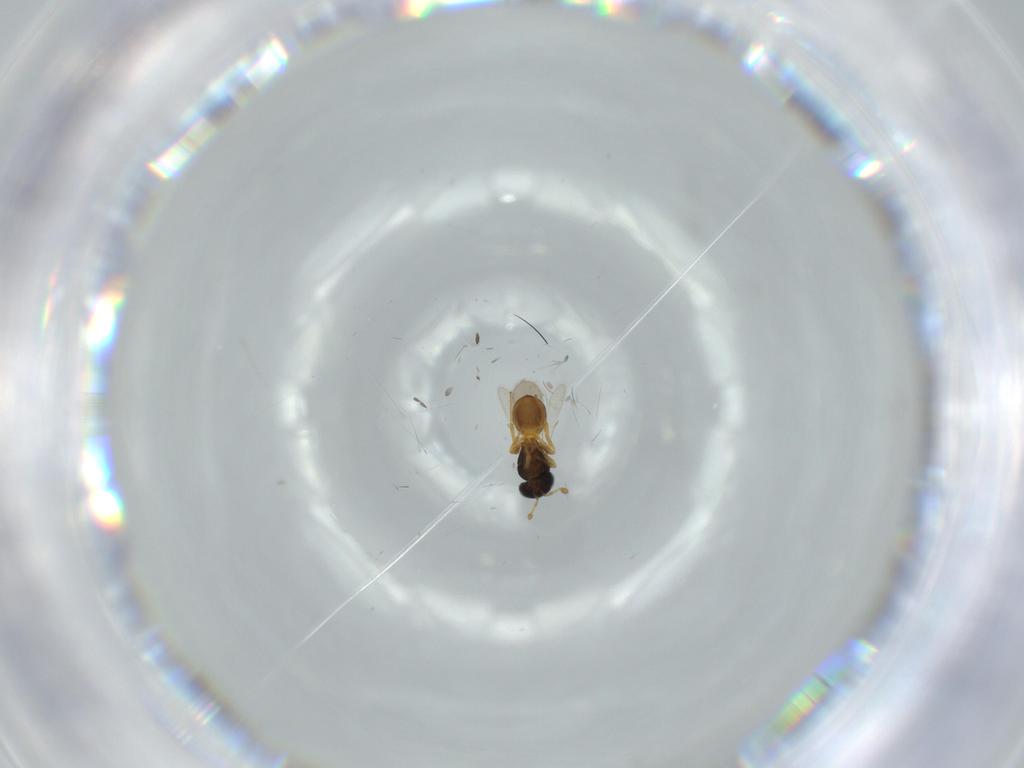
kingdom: Animalia
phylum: Arthropoda
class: Insecta
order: Hymenoptera
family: Scelionidae
